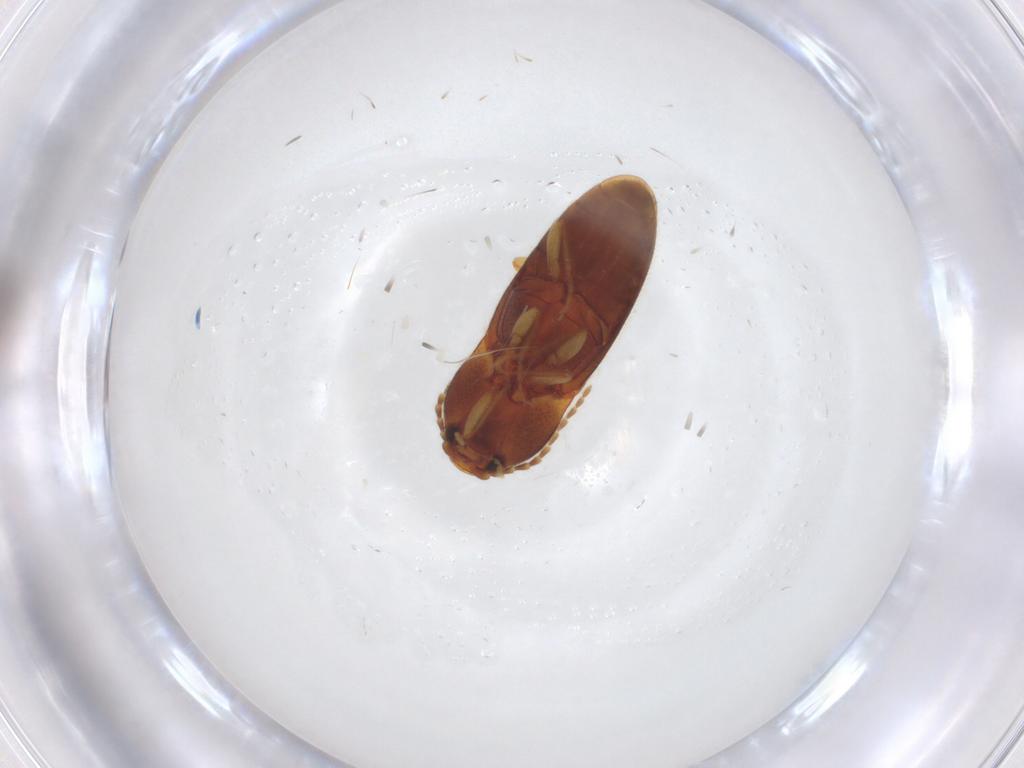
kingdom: Animalia
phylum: Arthropoda
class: Insecta
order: Coleoptera
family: Elateridae
